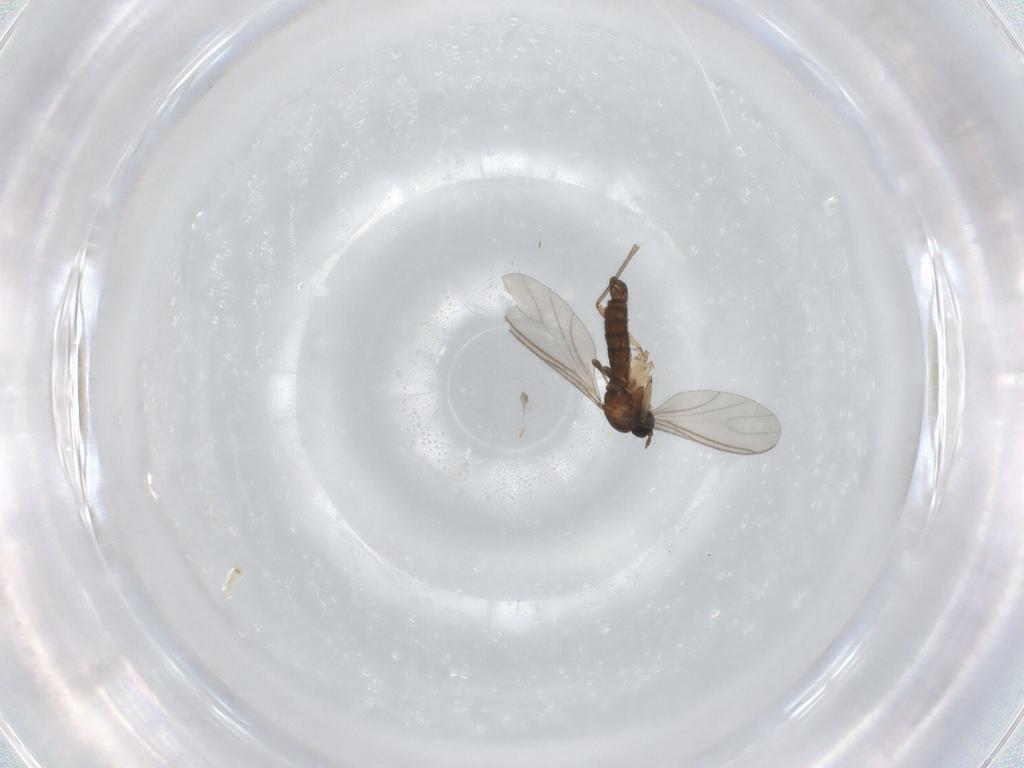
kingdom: Animalia
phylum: Arthropoda
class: Insecta
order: Diptera
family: Sciaridae
